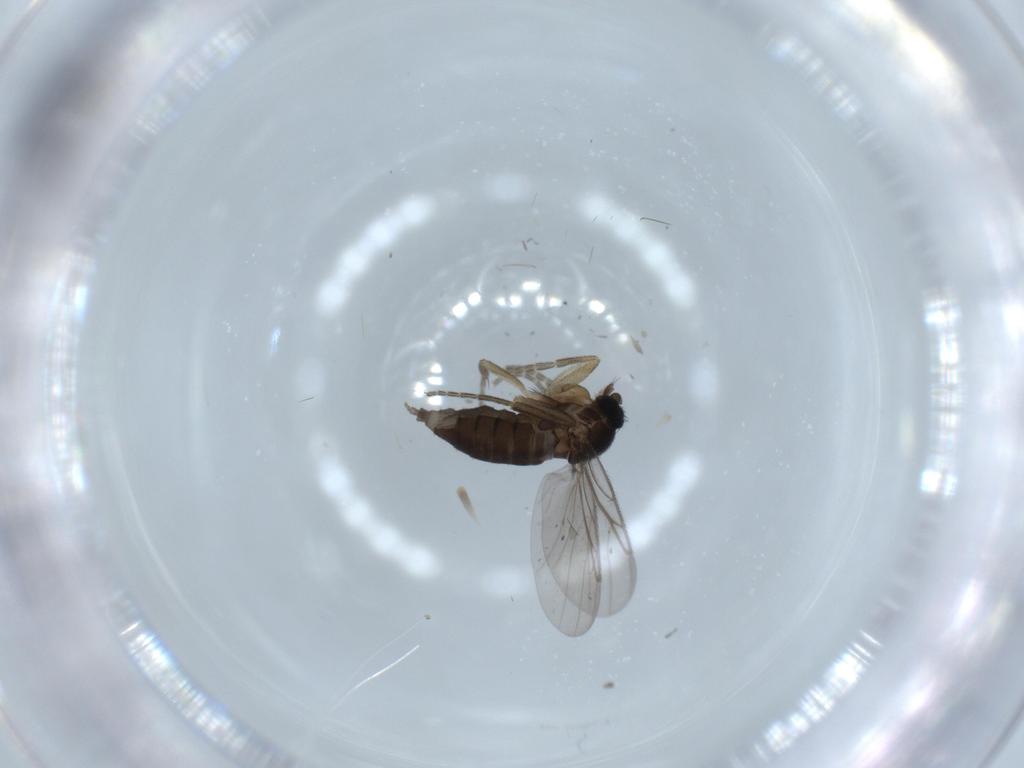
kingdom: Animalia
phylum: Arthropoda
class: Insecta
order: Diptera
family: Phoridae
